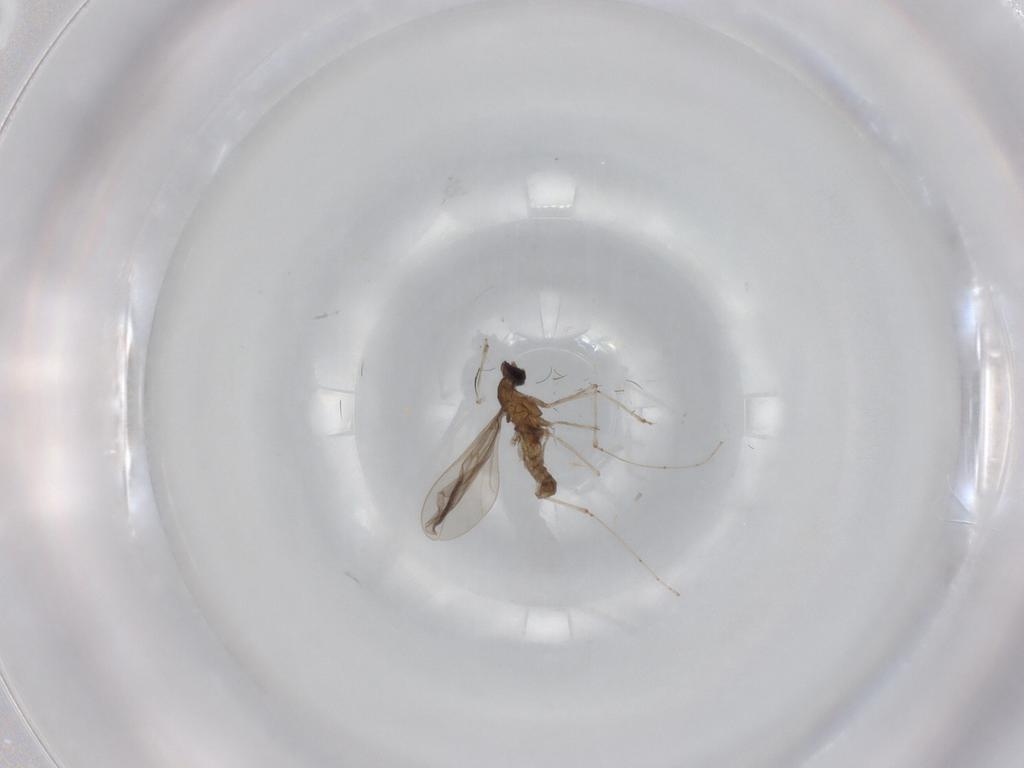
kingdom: Animalia
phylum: Arthropoda
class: Insecta
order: Diptera
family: Cecidomyiidae
